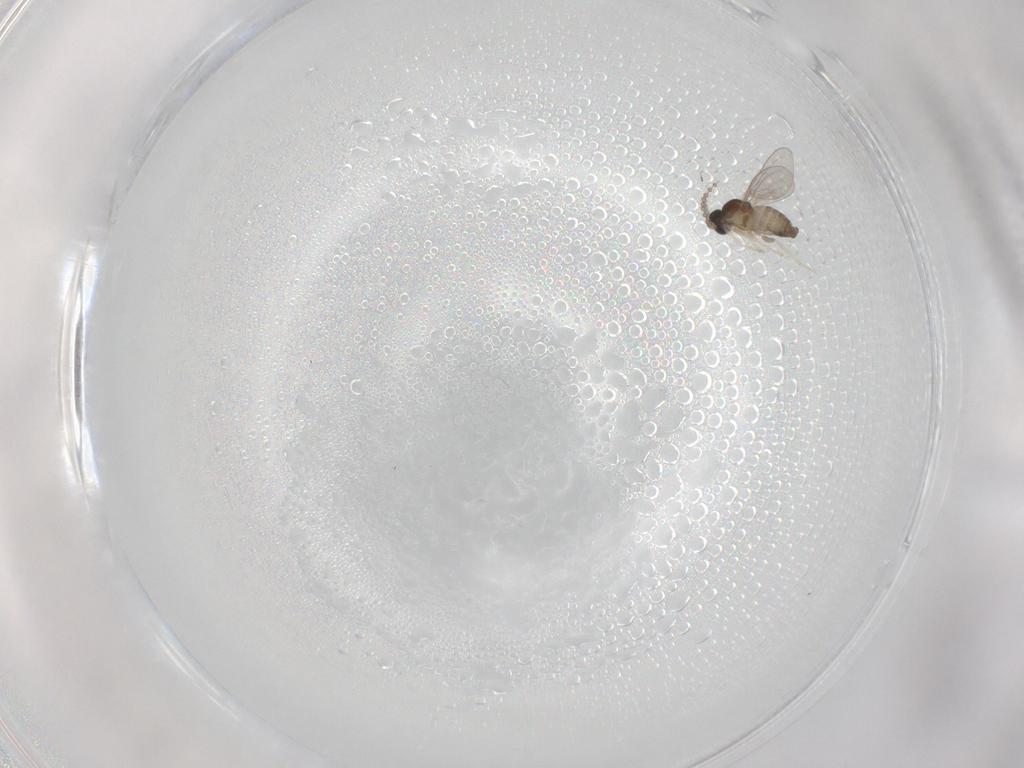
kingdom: Animalia
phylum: Arthropoda
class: Insecta
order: Diptera
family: Cecidomyiidae
